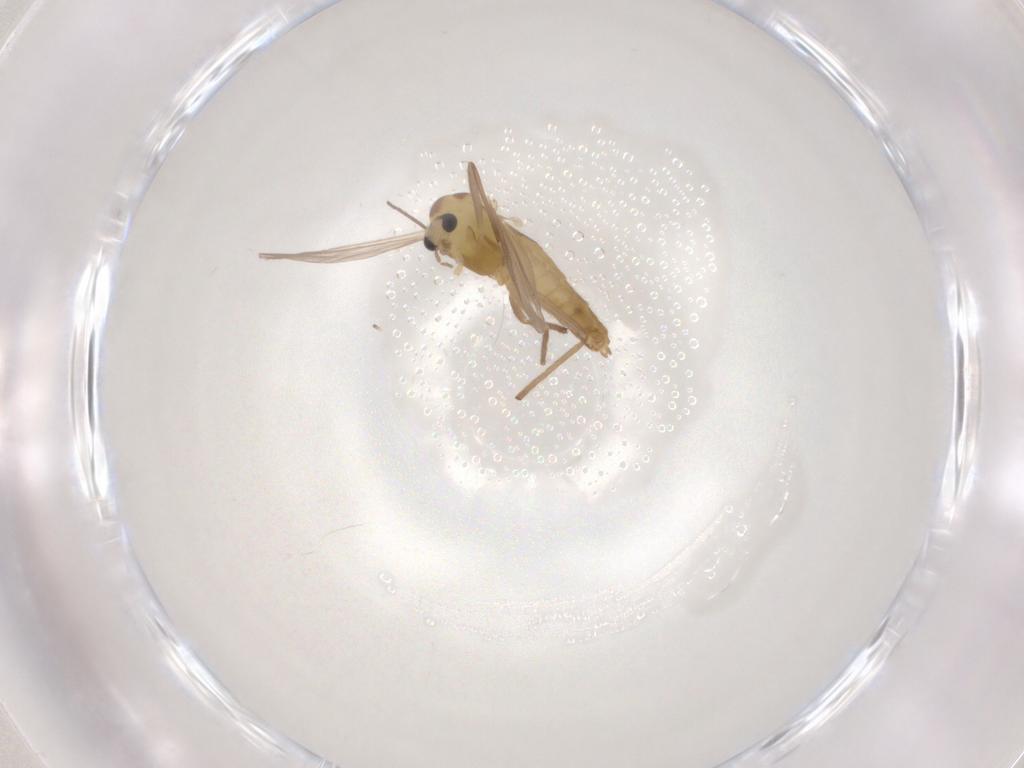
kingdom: Animalia
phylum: Arthropoda
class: Insecta
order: Diptera
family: Chironomidae
